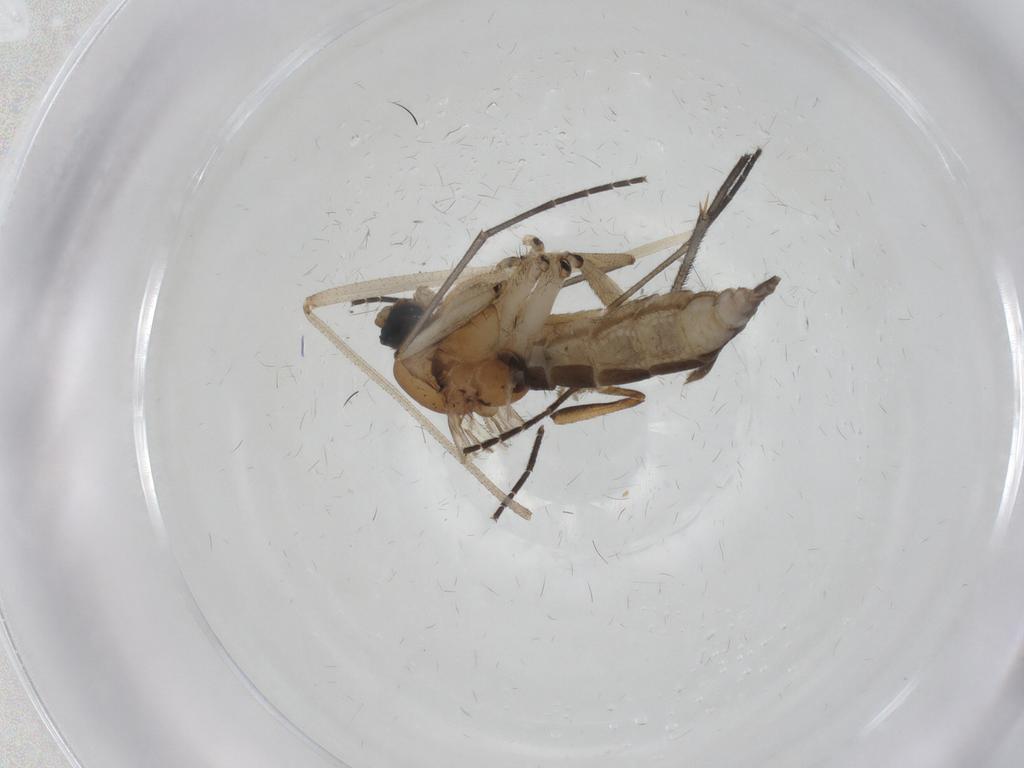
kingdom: Animalia
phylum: Arthropoda
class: Insecta
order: Diptera
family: Sciaridae
